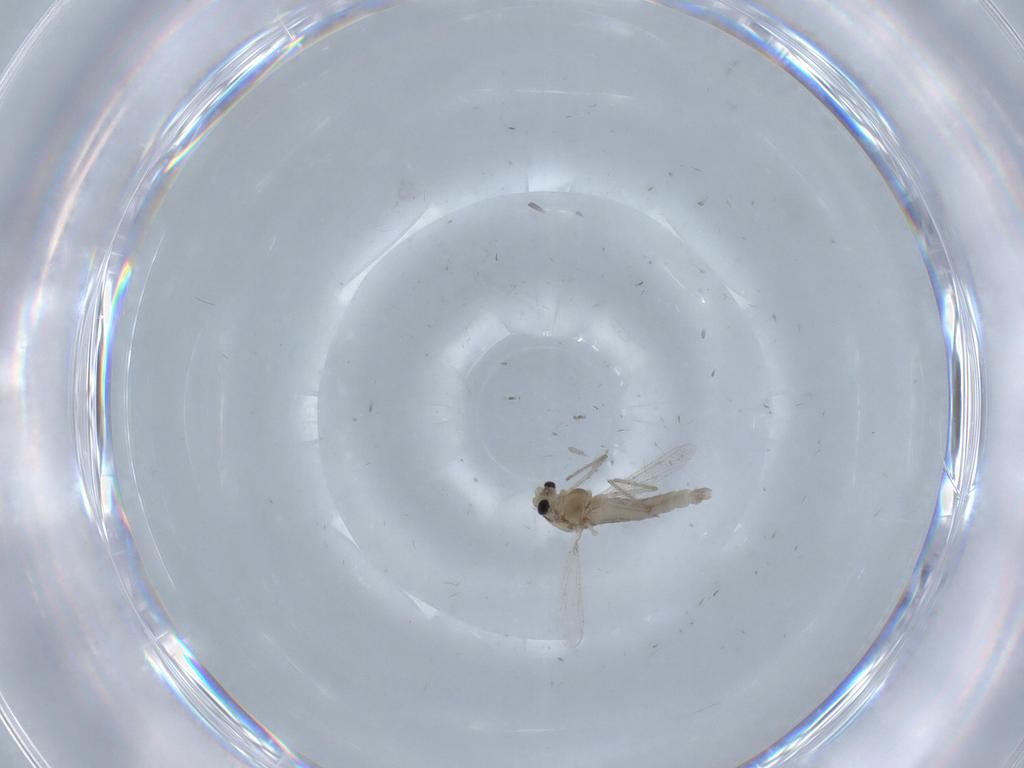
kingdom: Animalia
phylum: Arthropoda
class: Insecta
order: Diptera
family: Chironomidae
